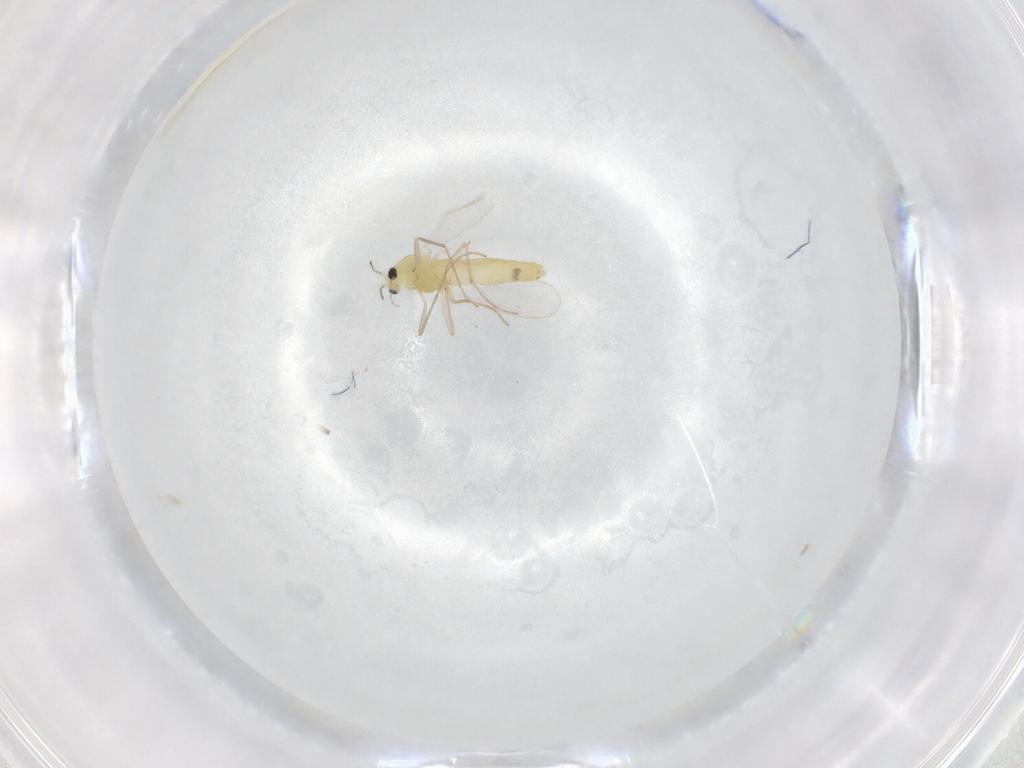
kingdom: Animalia
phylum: Arthropoda
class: Insecta
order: Diptera
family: Chironomidae
